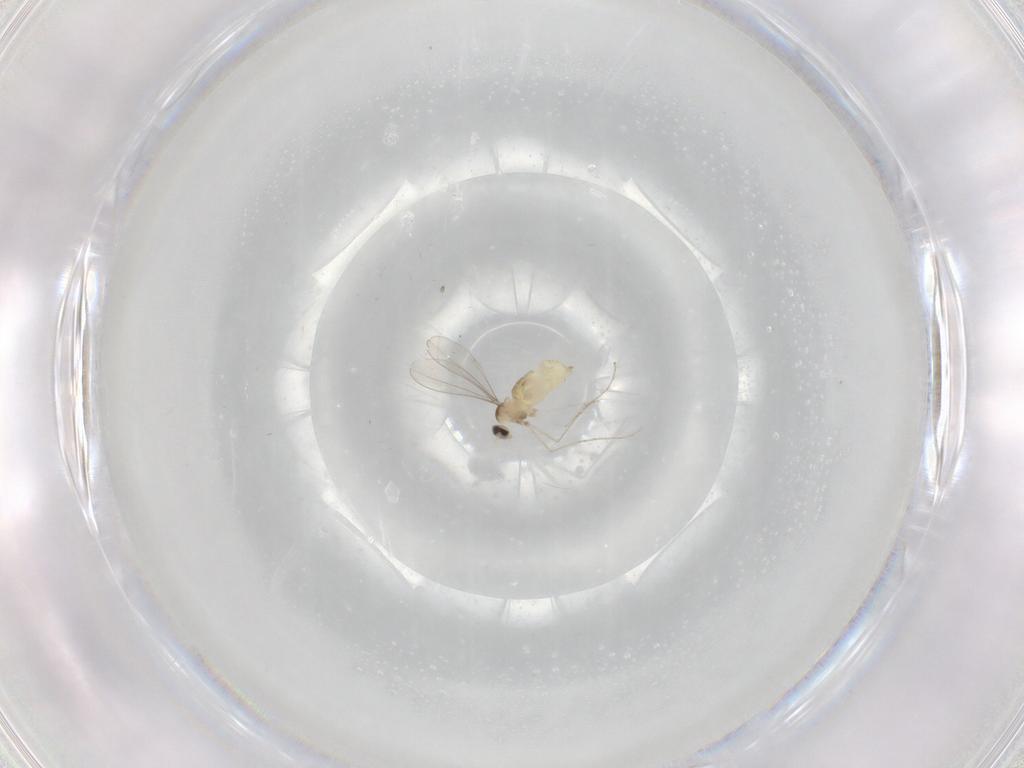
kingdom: Animalia
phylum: Arthropoda
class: Insecta
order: Diptera
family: Cecidomyiidae
